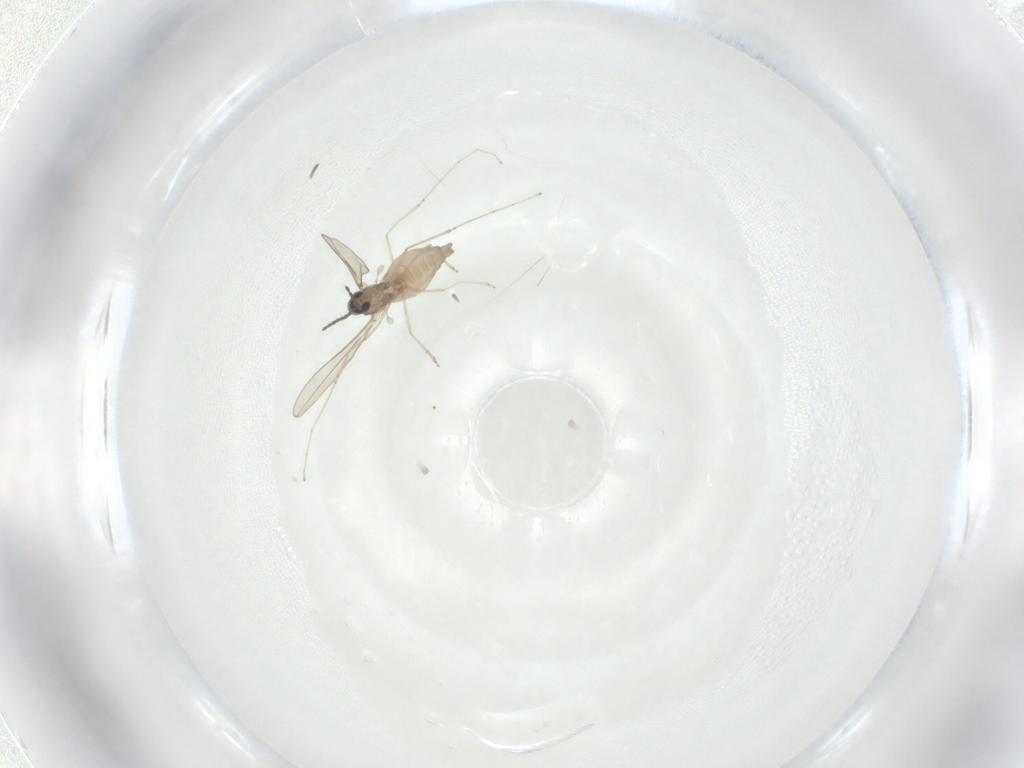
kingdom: Animalia
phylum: Arthropoda
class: Insecta
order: Diptera
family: Cecidomyiidae
